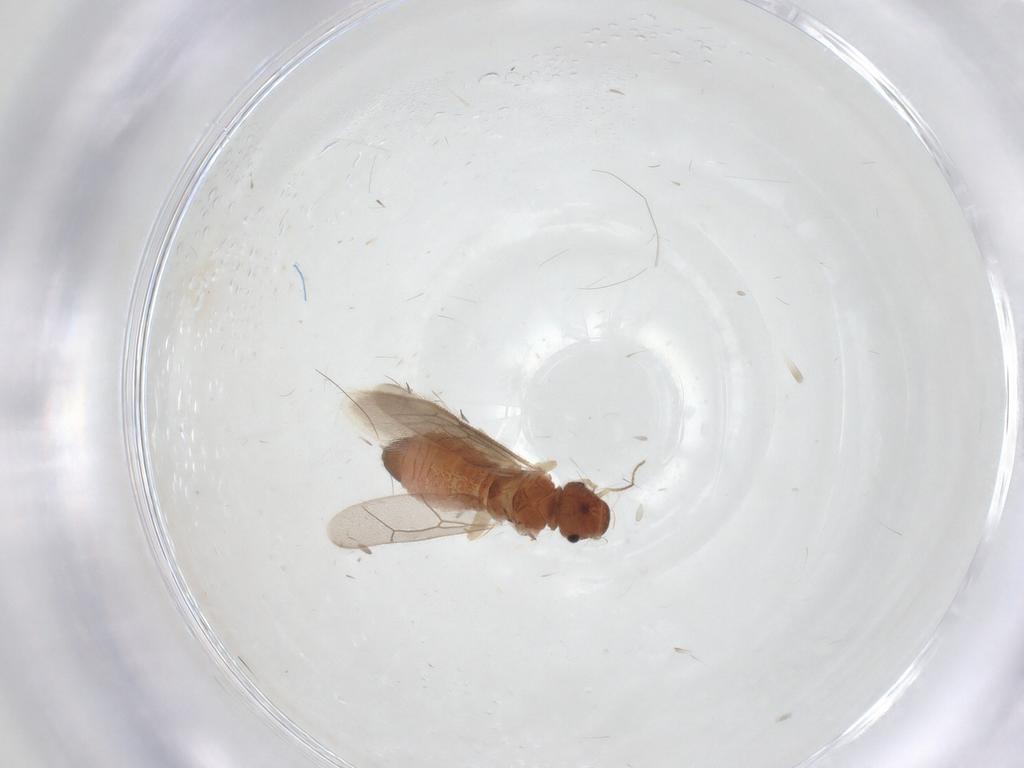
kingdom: Animalia
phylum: Arthropoda
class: Insecta
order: Psocodea
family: Archipsocidae
